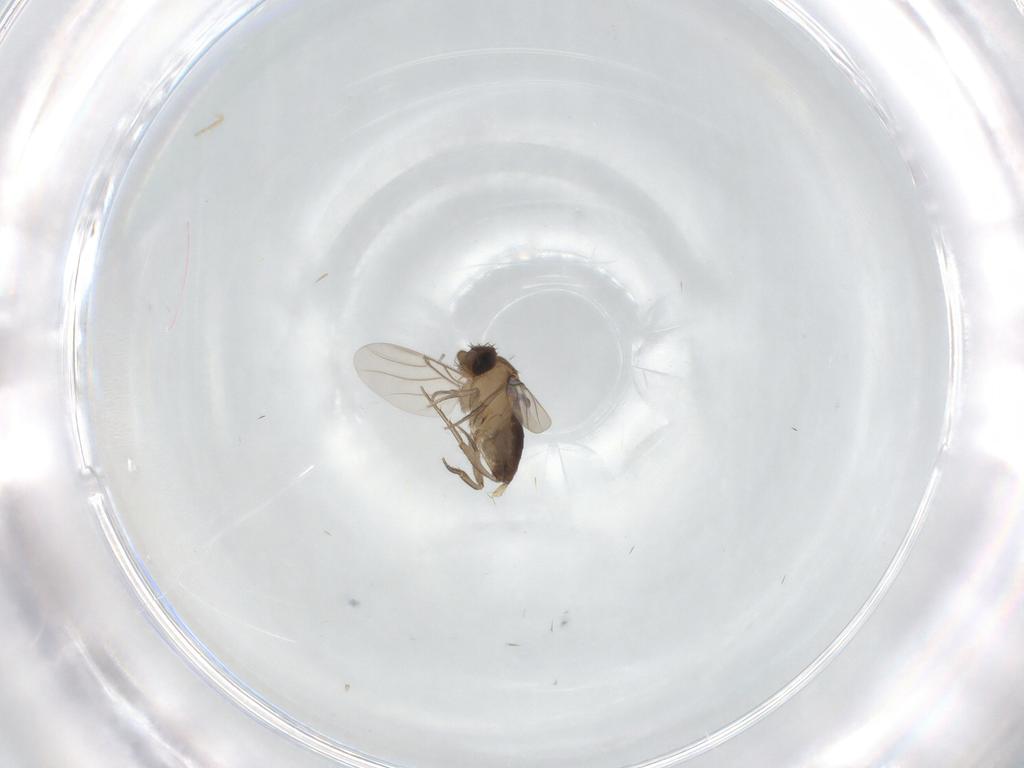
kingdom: Animalia
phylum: Arthropoda
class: Insecta
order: Diptera
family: Phoridae
